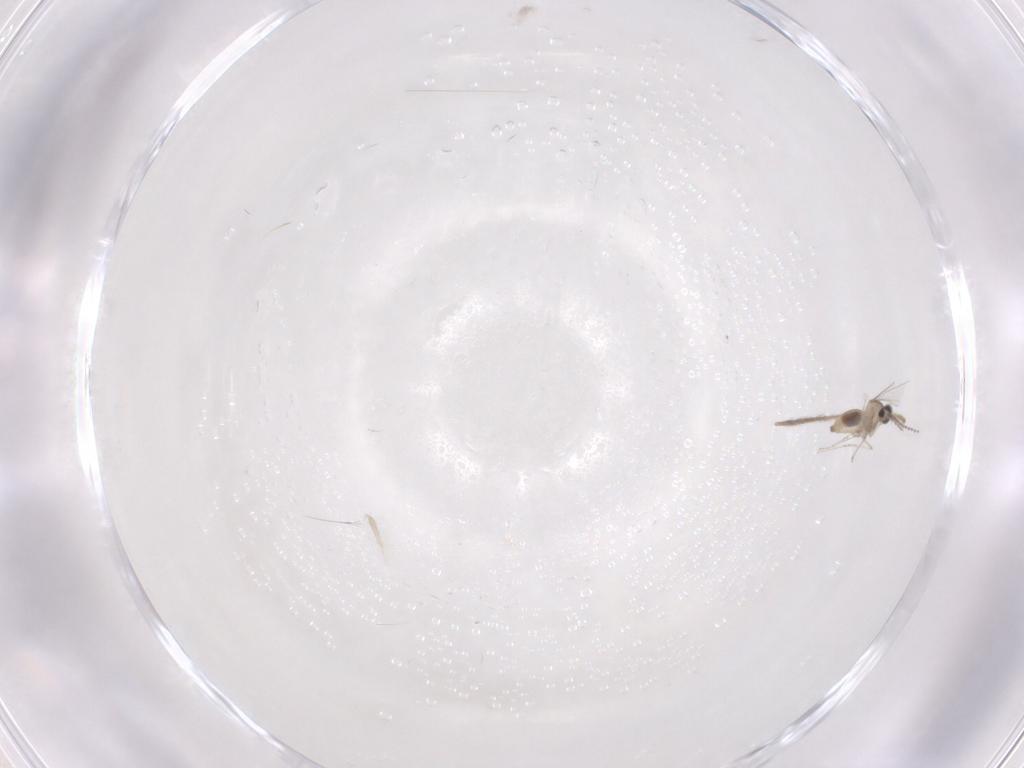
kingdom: Animalia
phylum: Arthropoda
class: Insecta
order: Diptera
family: Cecidomyiidae
